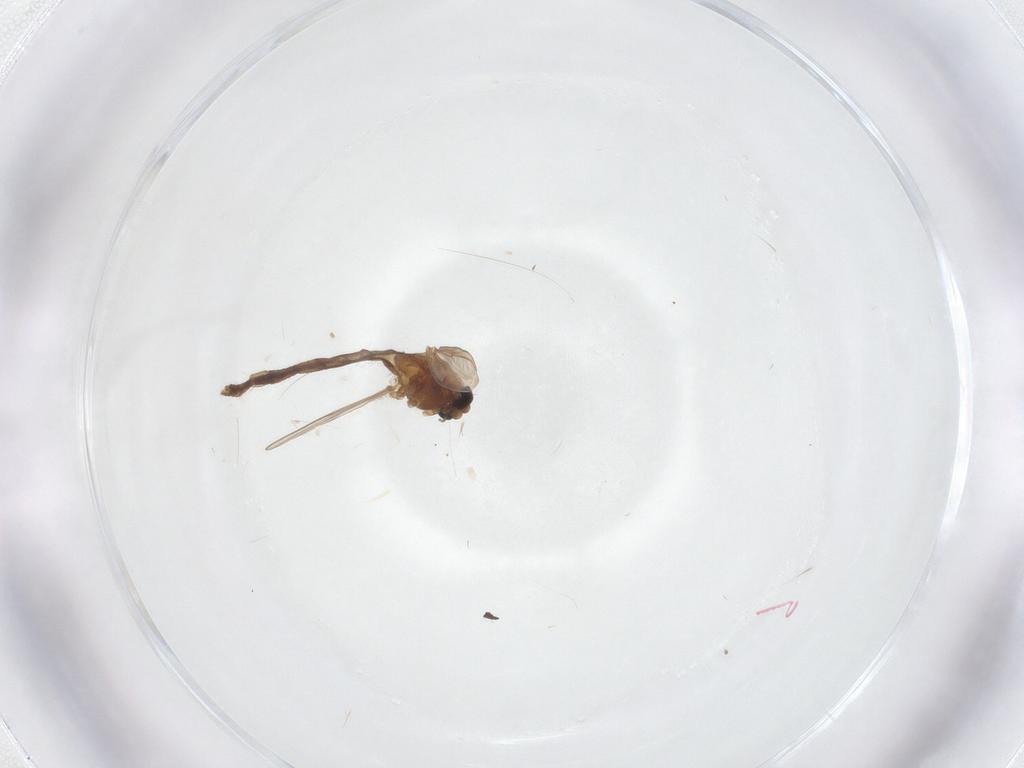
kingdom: Animalia
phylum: Arthropoda
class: Insecta
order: Diptera
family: Chironomidae
